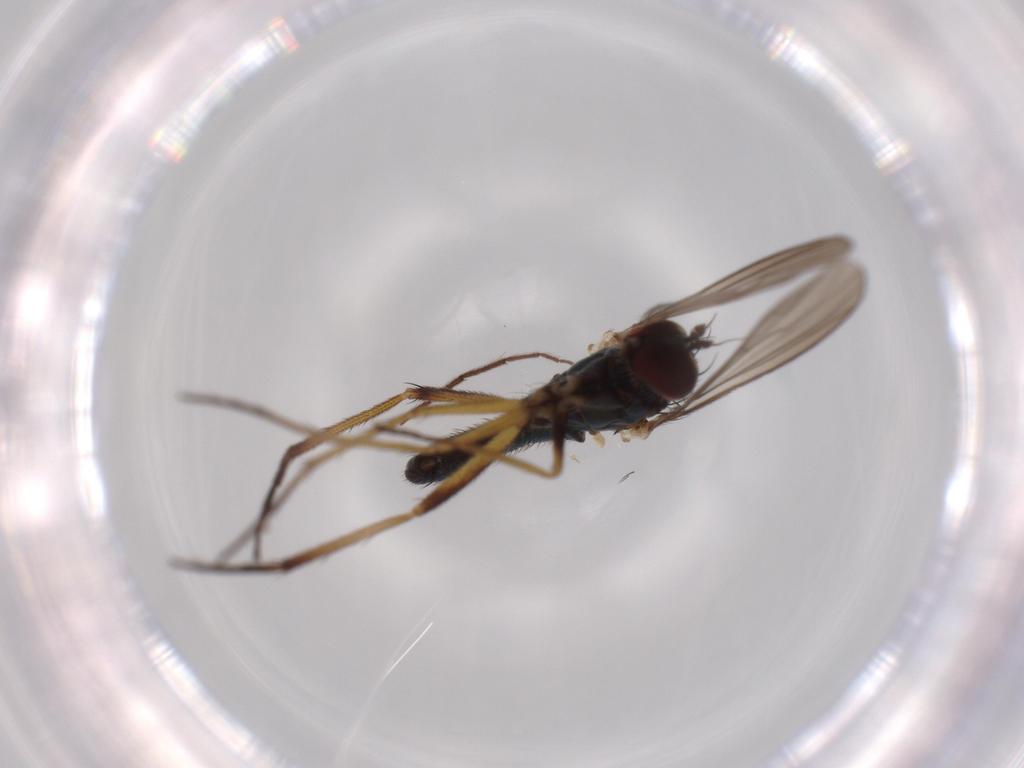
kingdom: Animalia
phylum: Arthropoda
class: Insecta
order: Diptera
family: Dolichopodidae
